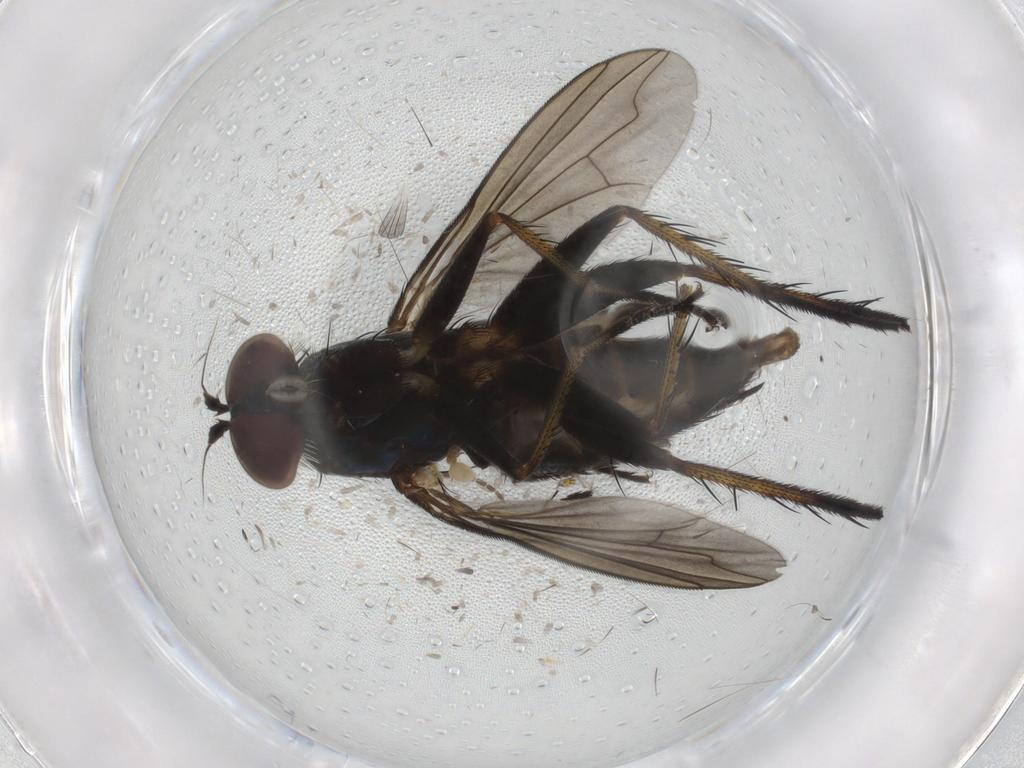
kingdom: Animalia
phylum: Arthropoda
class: Insecta
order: Diptera
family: Dolichopodidae
